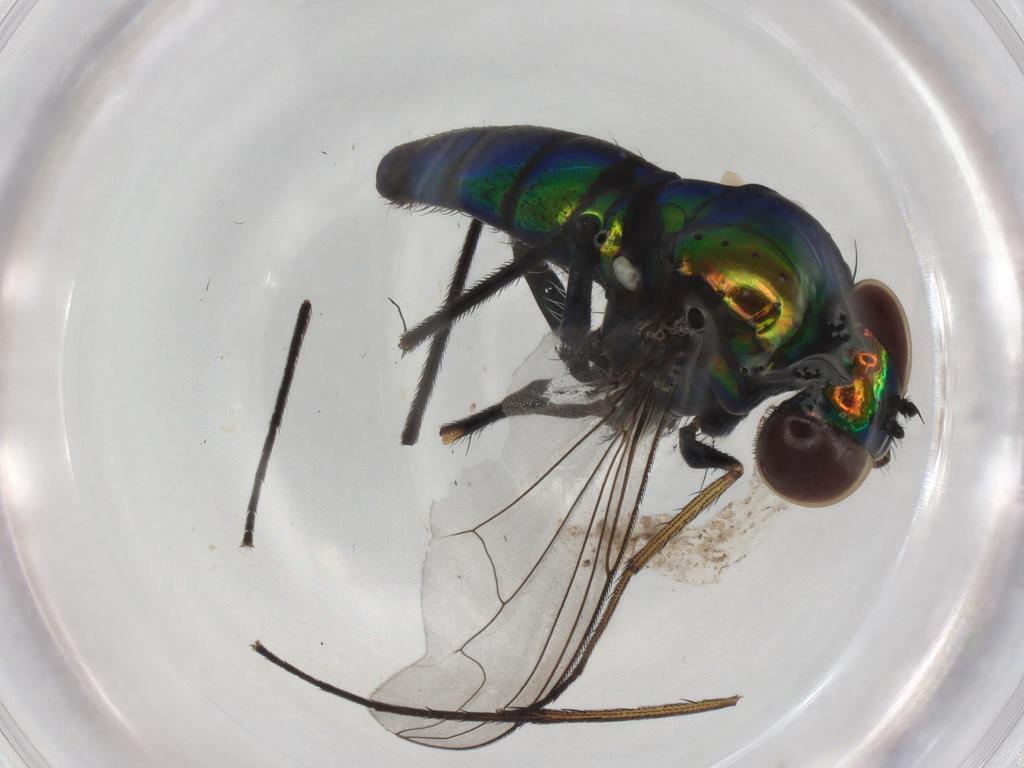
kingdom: Animalia
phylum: Arthropoda
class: Insecta
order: Diptera
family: Dolichopodidae
